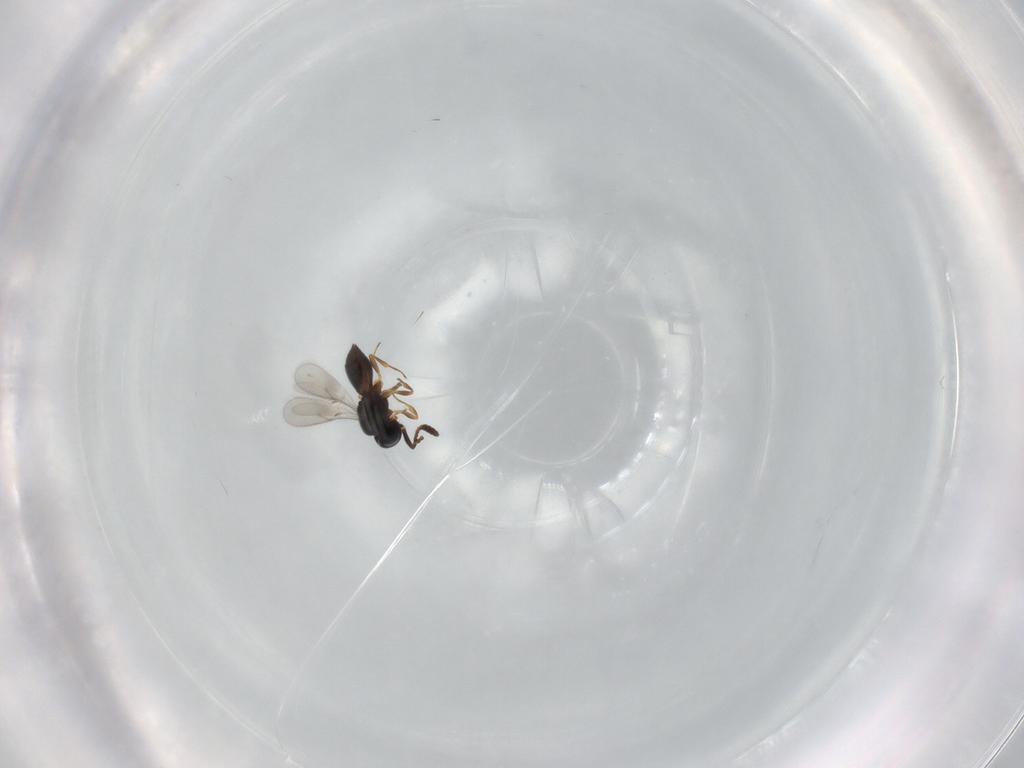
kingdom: Animalia
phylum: Arthropoda
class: Insecta
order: Hymenoptera
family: Scelionidae
